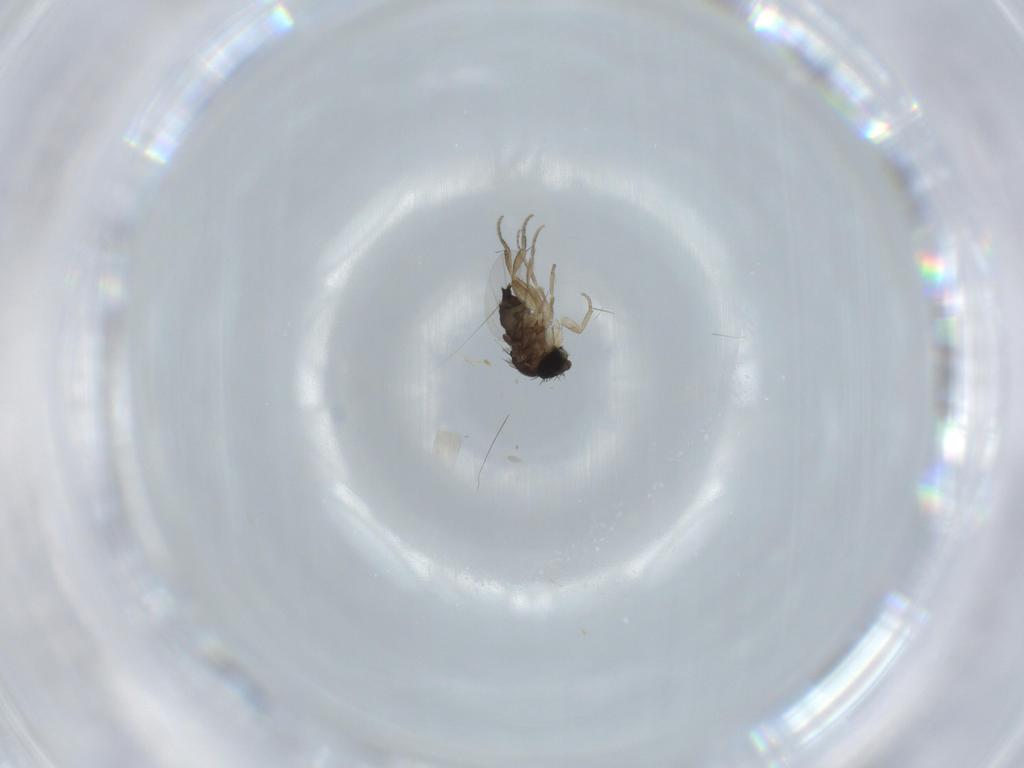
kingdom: Animalia
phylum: Arthropoda
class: Insecta
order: Diptera
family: Phoridae
